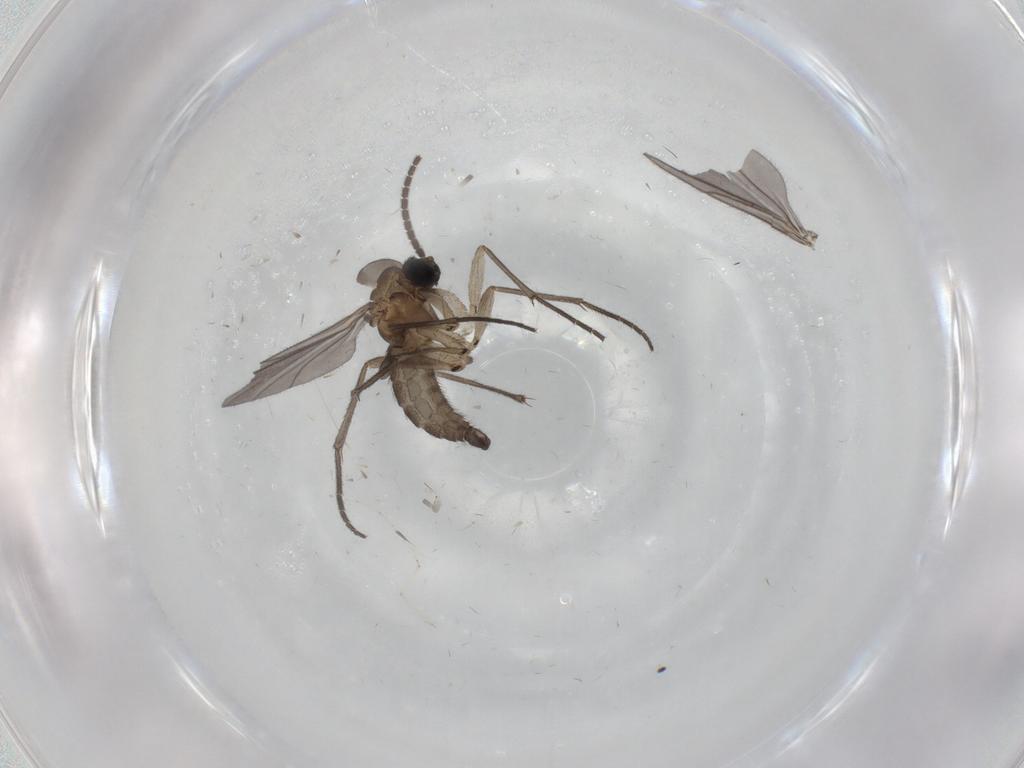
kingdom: Animalia
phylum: Arthropoda
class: Insecta
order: Diptera
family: Sciaridae
